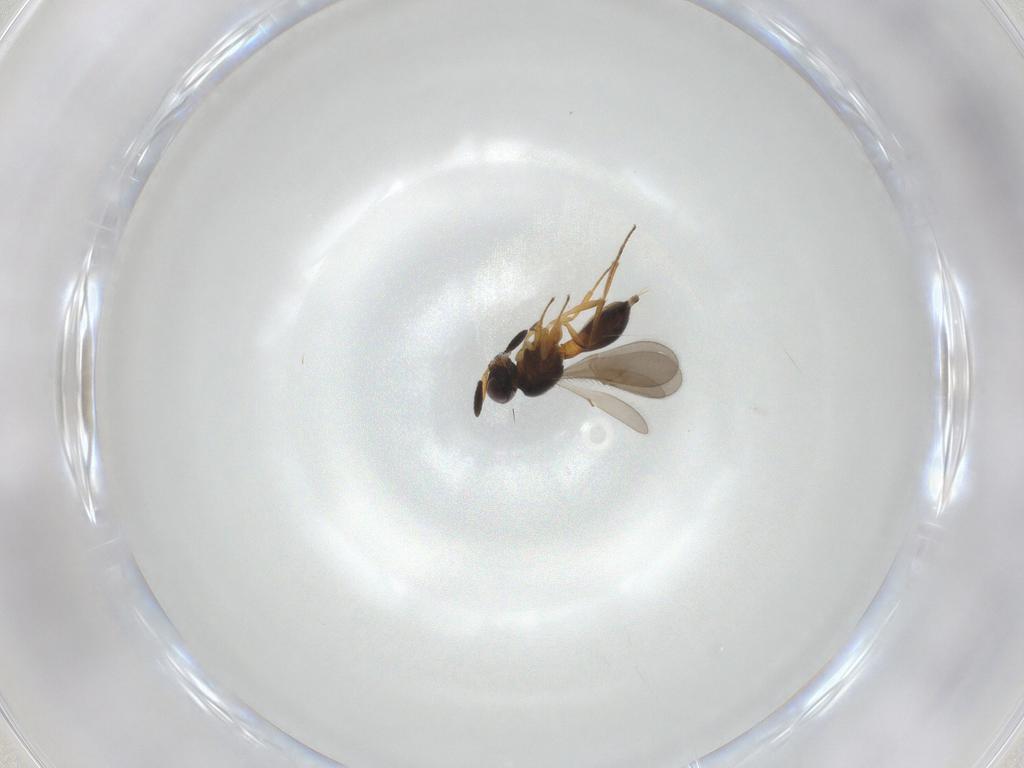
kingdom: Animalia
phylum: Arthropoda
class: Insecta
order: Hymenoptera
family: Scelionidae
